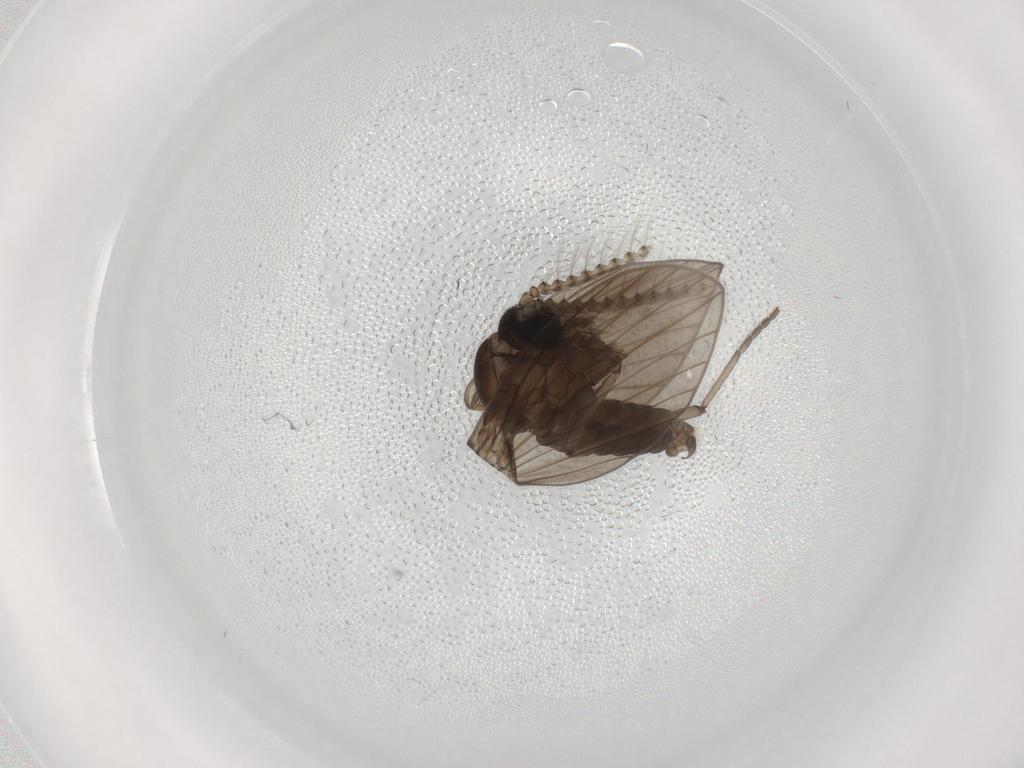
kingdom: Animalia
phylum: Arthropoda
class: Insecta
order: Diptera
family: Psychodidae
